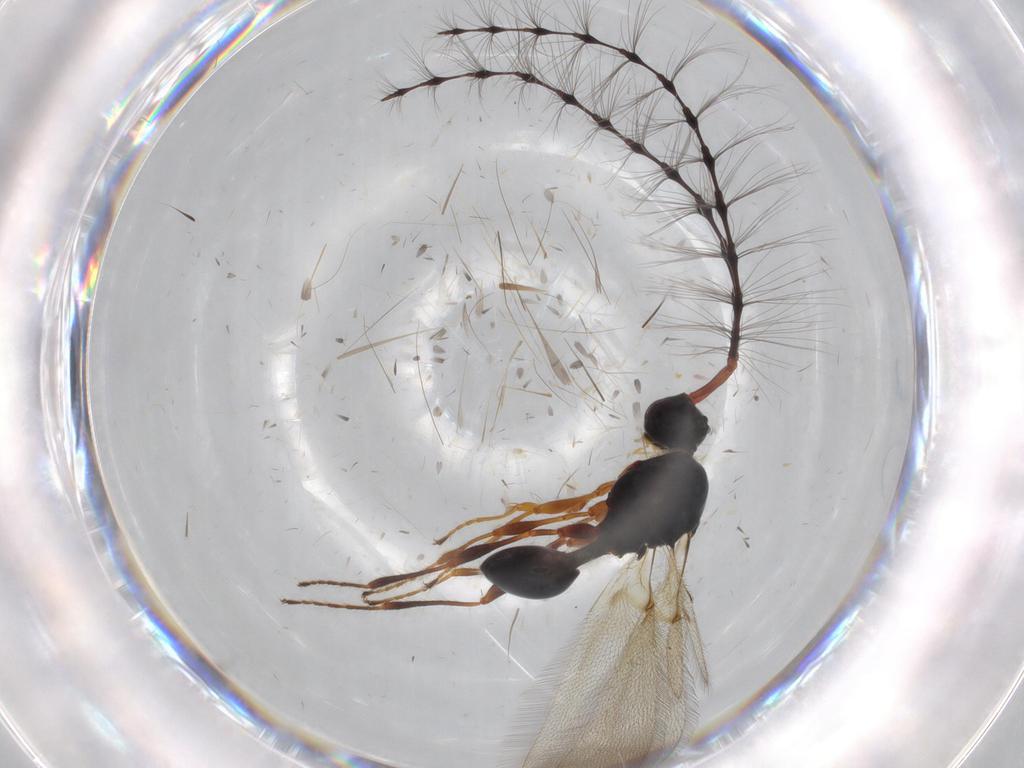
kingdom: Animalia
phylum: Arthropoda
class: Insecta
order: Hymenoptera
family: Diapriidae
